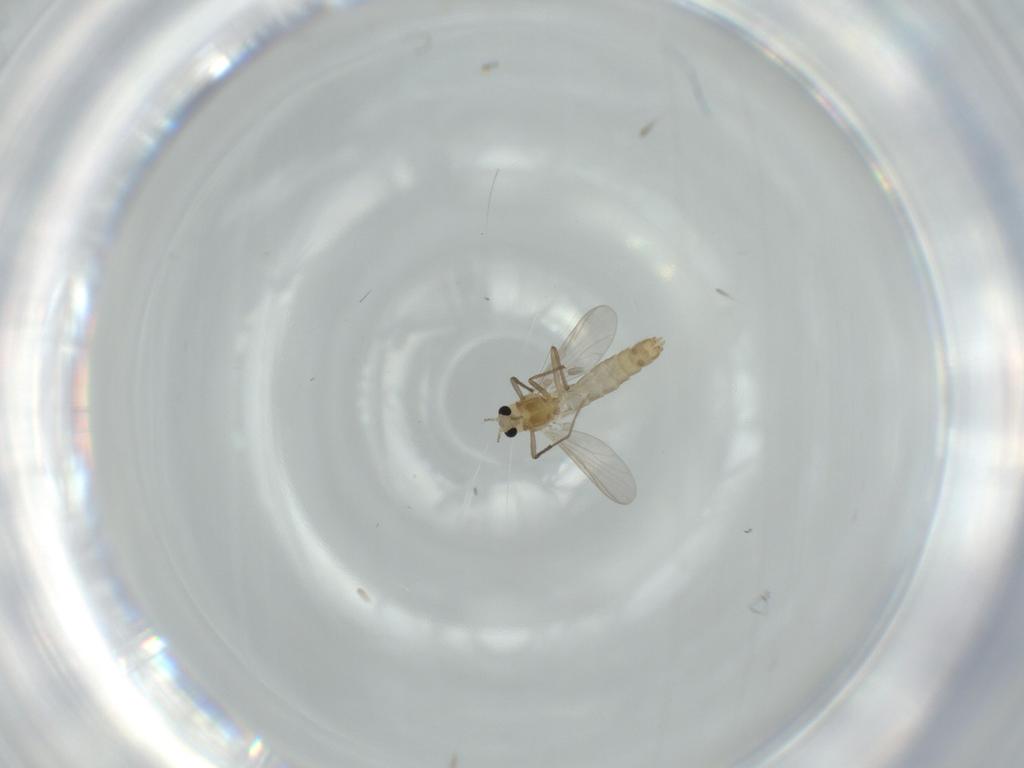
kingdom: Animalia
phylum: Arthropoda
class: Insecta
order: Diptera
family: Chironomidae
